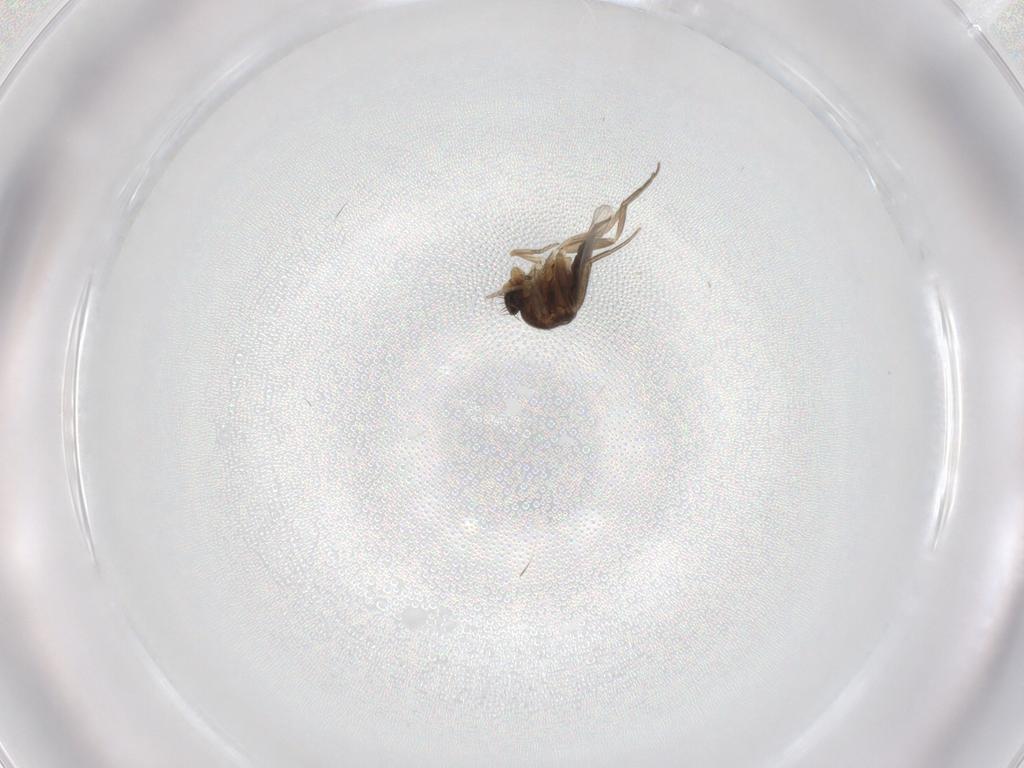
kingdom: Animalia
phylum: Arthropoda
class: Insecta
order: Diptera
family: Phoridae
